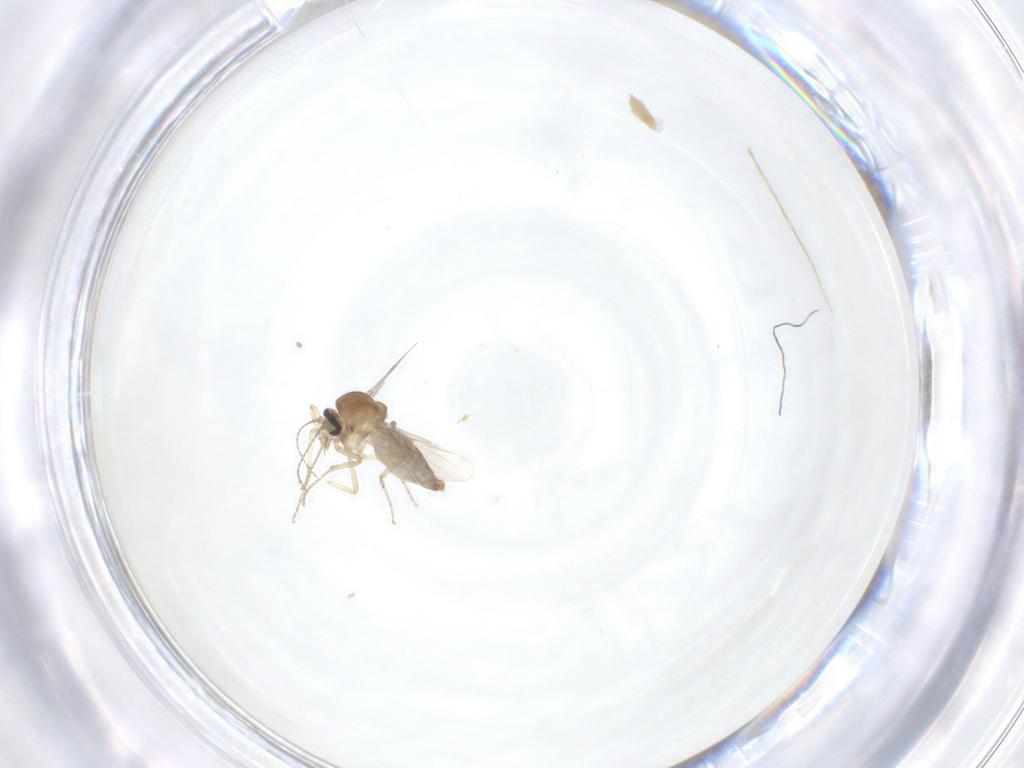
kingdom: Animalia
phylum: Arthropoda
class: Insecta
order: Diptera
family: Ceratopogonidae
